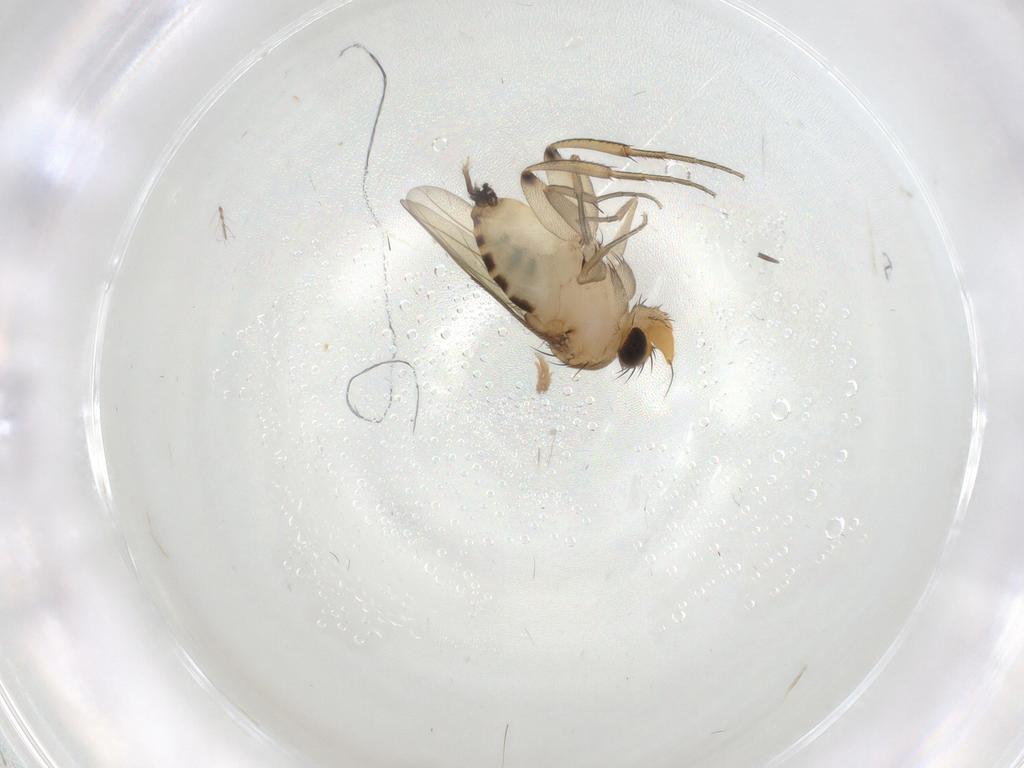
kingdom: Animalia
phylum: Arthropoda
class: Insecta
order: Diptera
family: Phoridae
